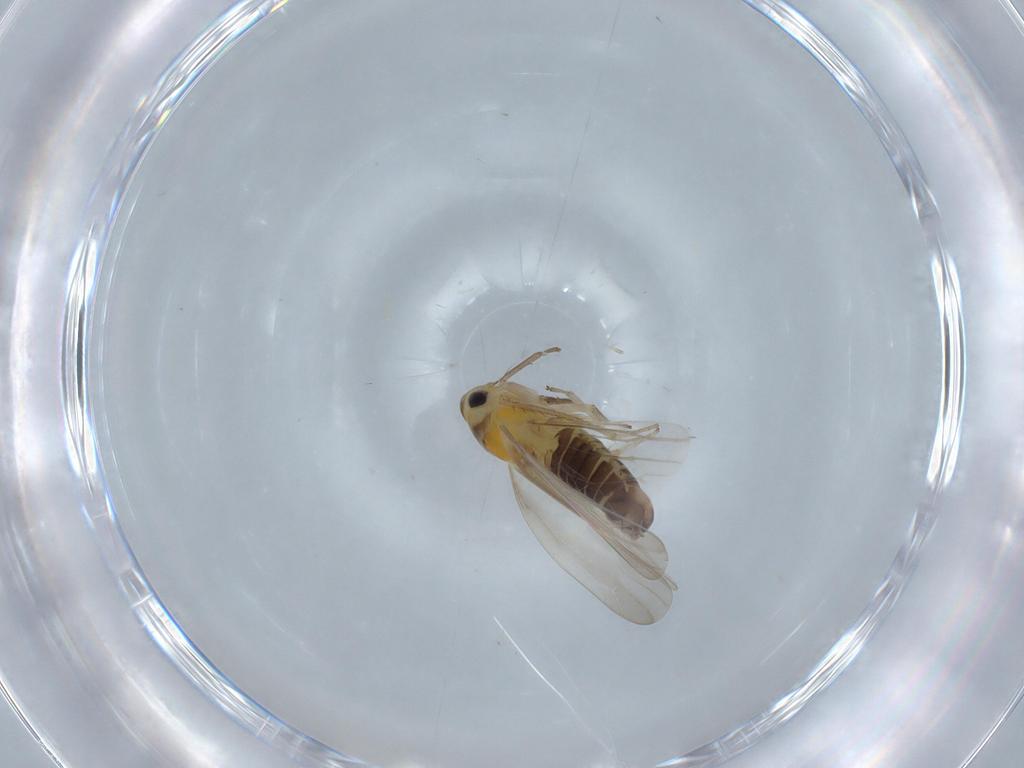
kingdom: Animalia
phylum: Arthropoda
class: Insecta
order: Hemiptera
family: Cicadellidae
